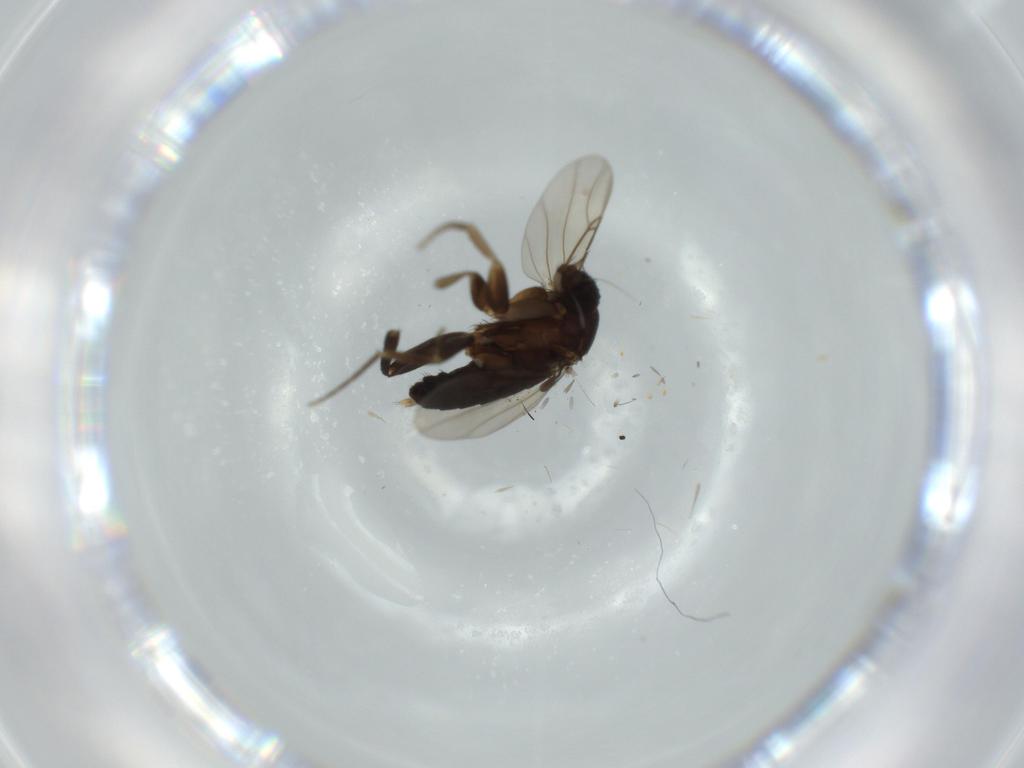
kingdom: Animalia
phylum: Arthropoda
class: Insecta
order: Diptera
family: Phoridae
